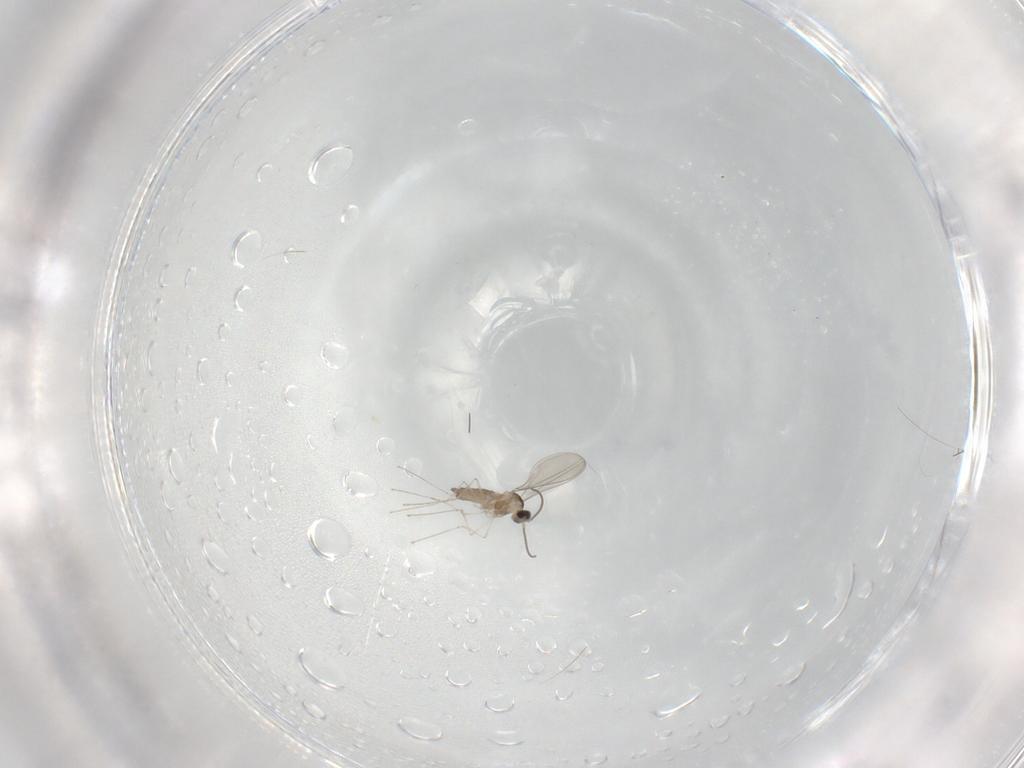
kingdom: Animalia
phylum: Arthropoda
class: Insecta
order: Diptera
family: Cecidomyiidae
